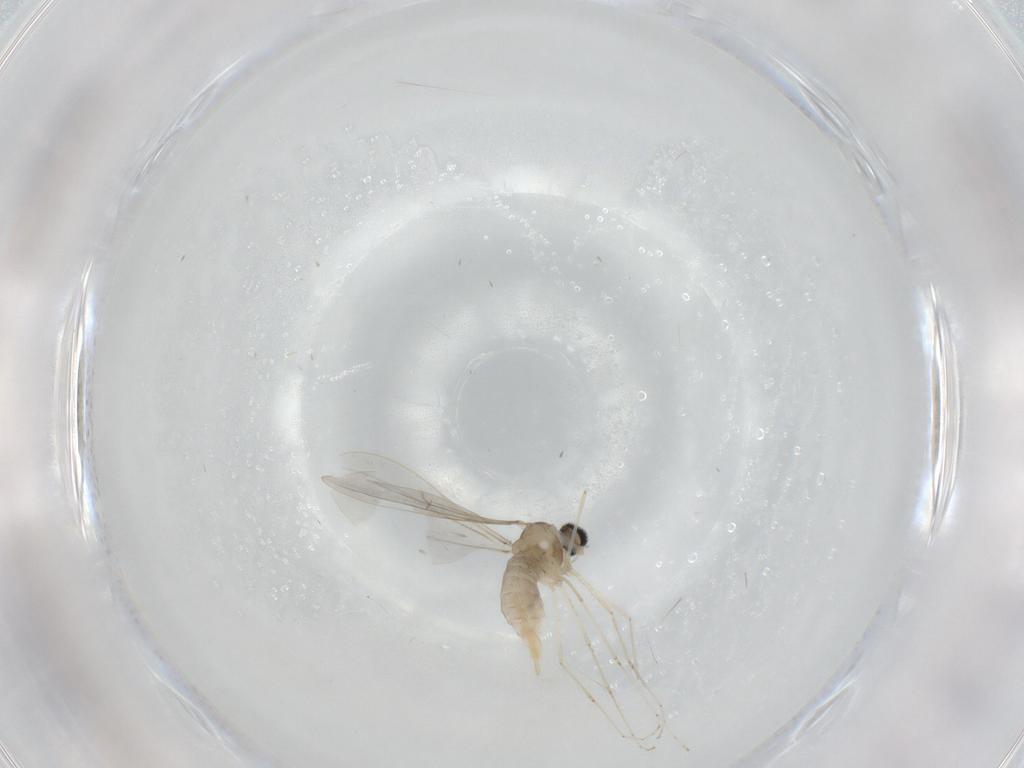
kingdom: Animalia
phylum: Arthropoda
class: Insecta
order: Diptera
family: Cecidomyiidae
